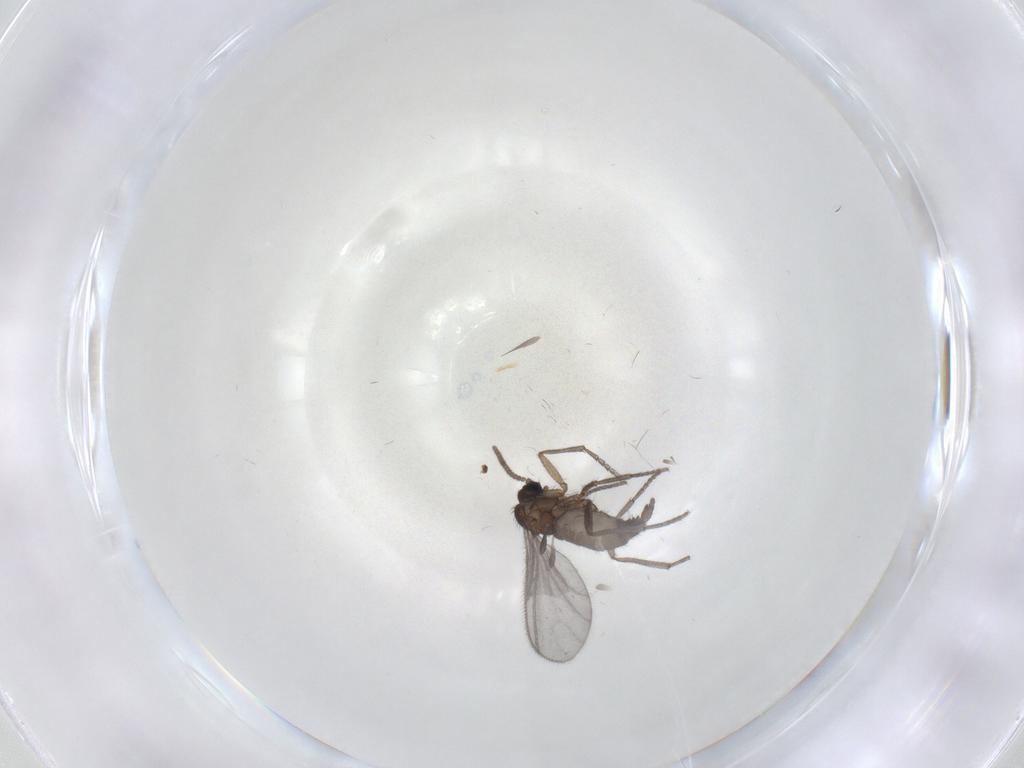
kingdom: Animalia
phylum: Arthropoda
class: Insecta
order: Diptera
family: Sciaridae
